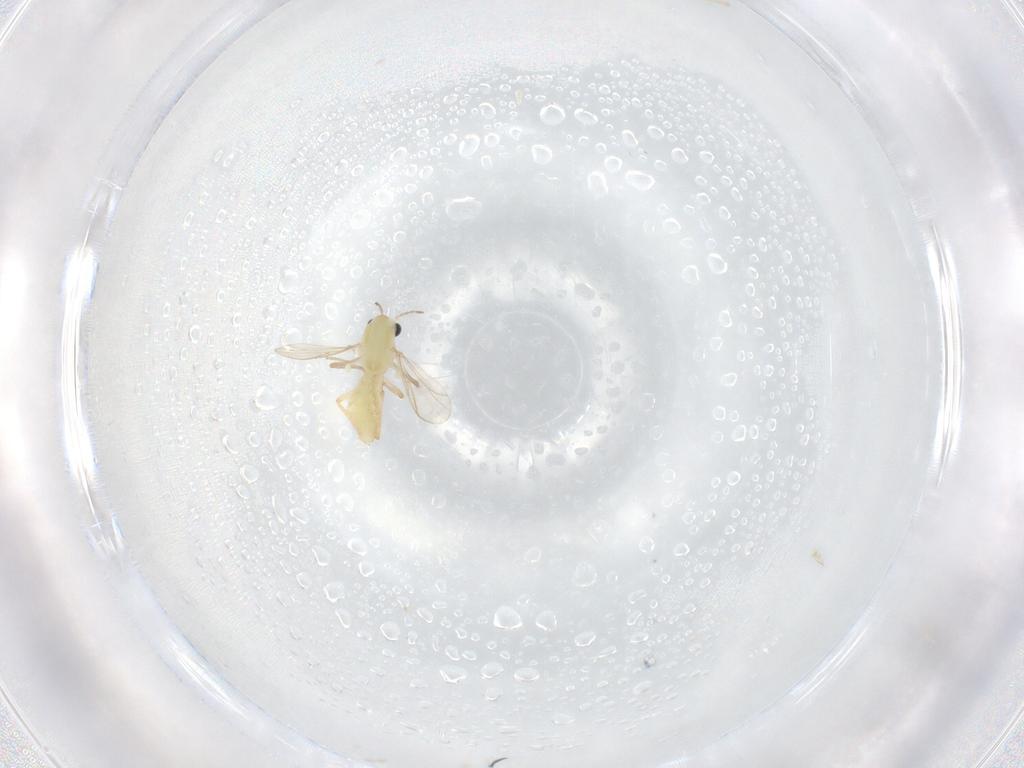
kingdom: Animalia
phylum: Arthropoda
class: Insecta
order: Diptera
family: Chironomidae
